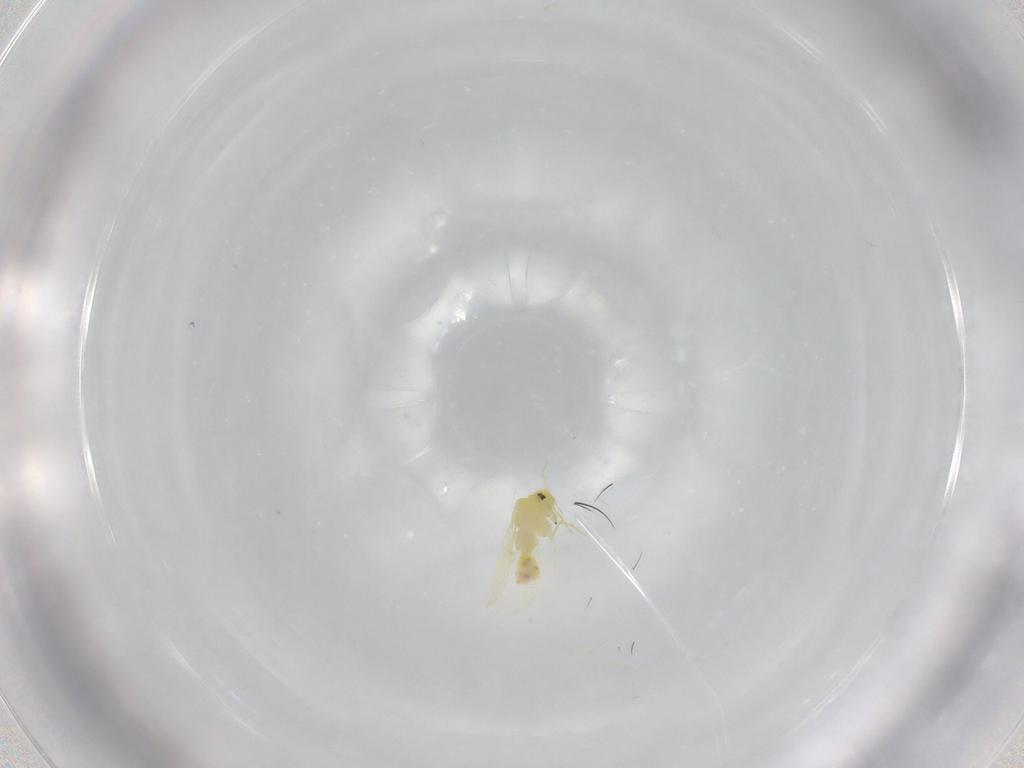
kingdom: Animalia
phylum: Arthropoda
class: Insecta
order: Hemiptera
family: Aleyrodidae
